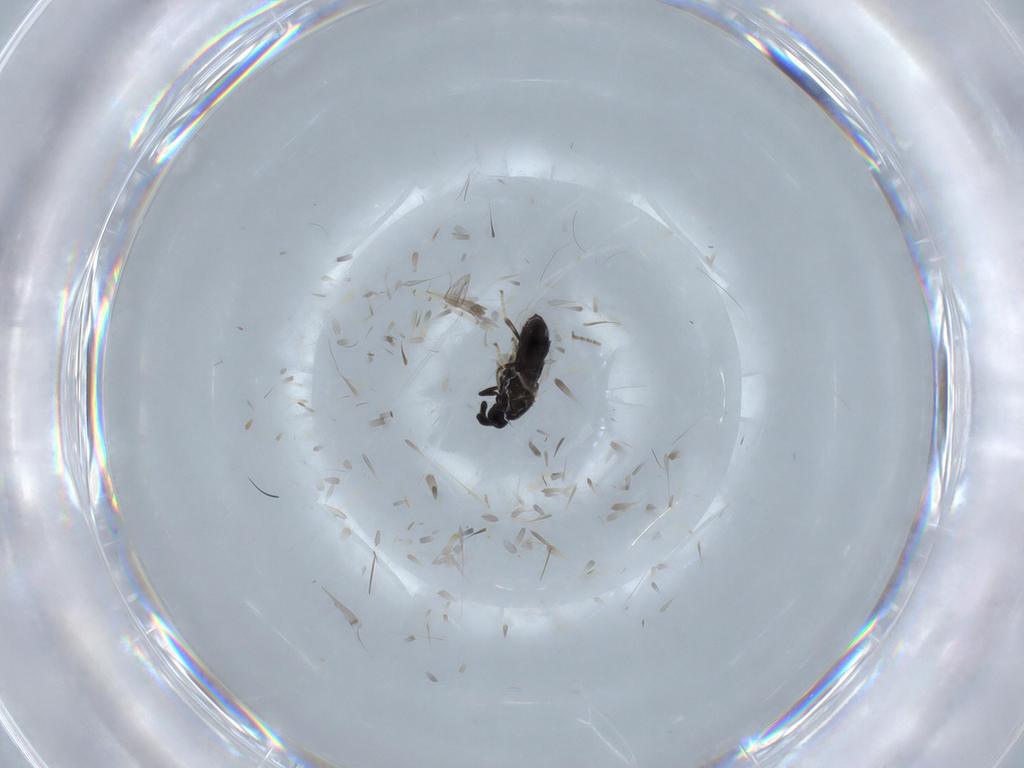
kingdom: Animalia
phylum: Arthropoda
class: Insecta
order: Diptera
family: Scatopsidae
